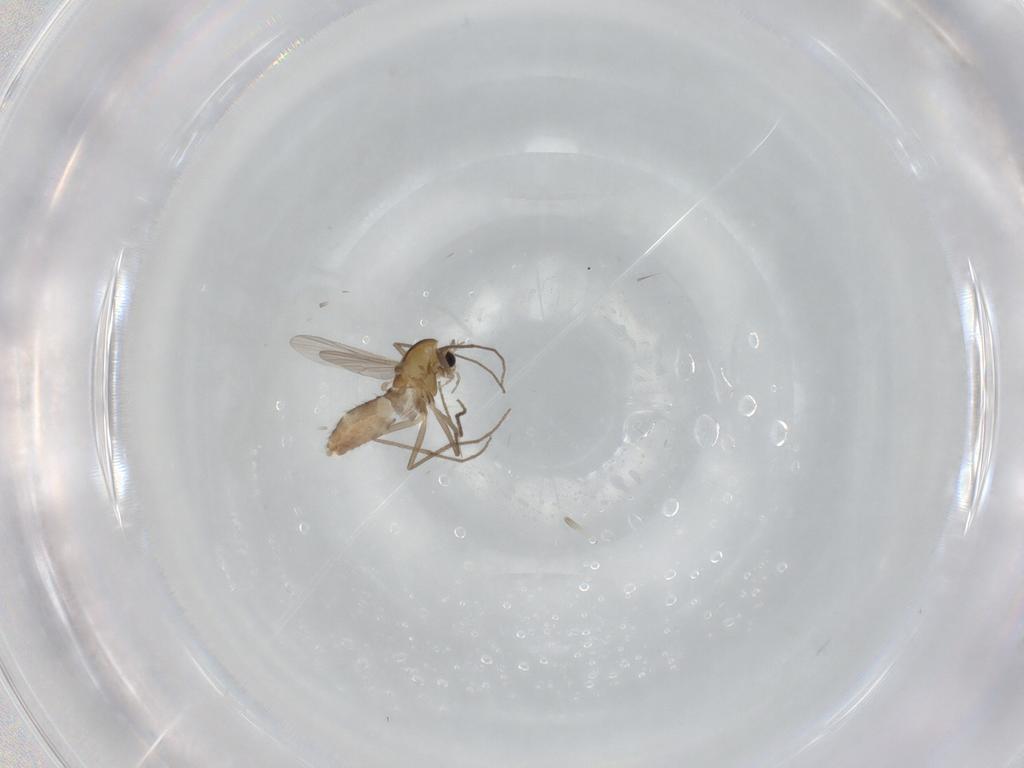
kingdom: Animalia
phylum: Arthropoda
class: Insecta
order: Diptera
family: Chironomidae
